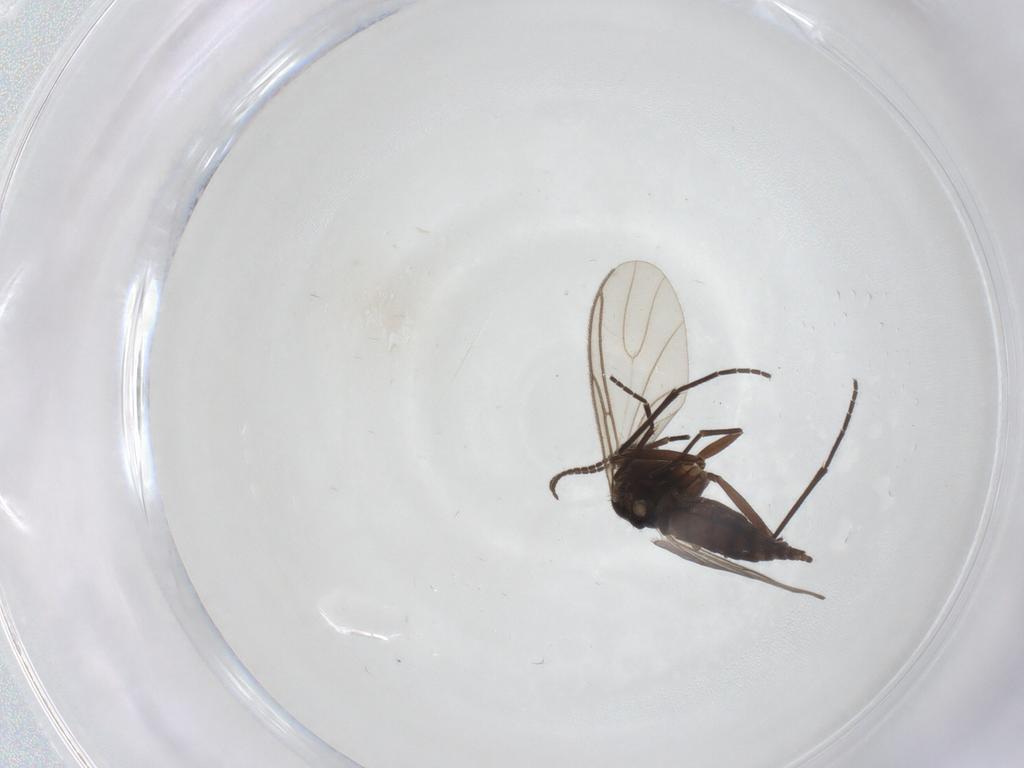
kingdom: Animalia
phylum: Arthropoda
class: Insecta
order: Diptera
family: Sciaridae
